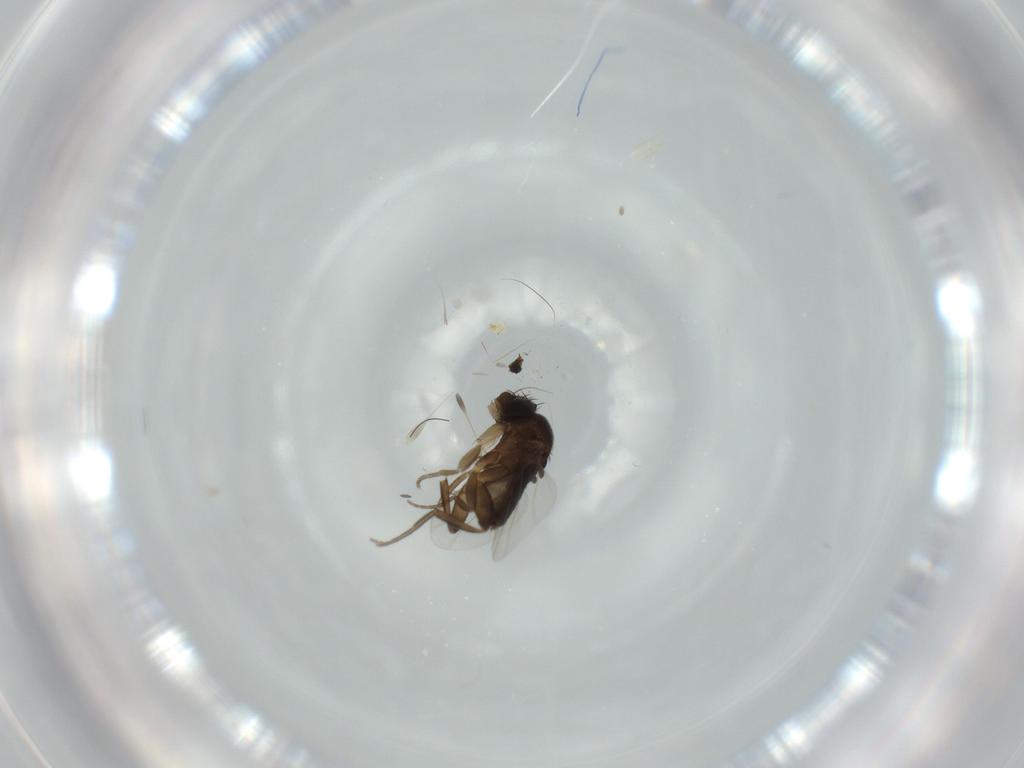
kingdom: Animalia
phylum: Arthropoda
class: Insecta
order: Diptera
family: Phoridae
